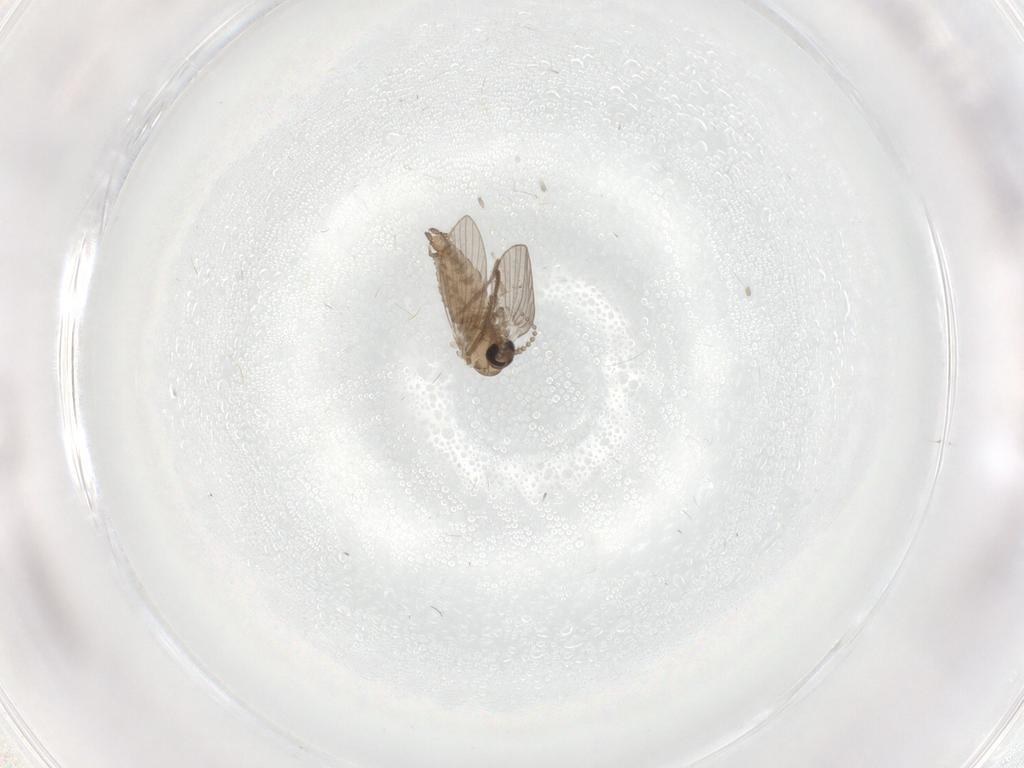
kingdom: Animalia
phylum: Arthropoda
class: Insecta
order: Diptera
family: Psychodidae
